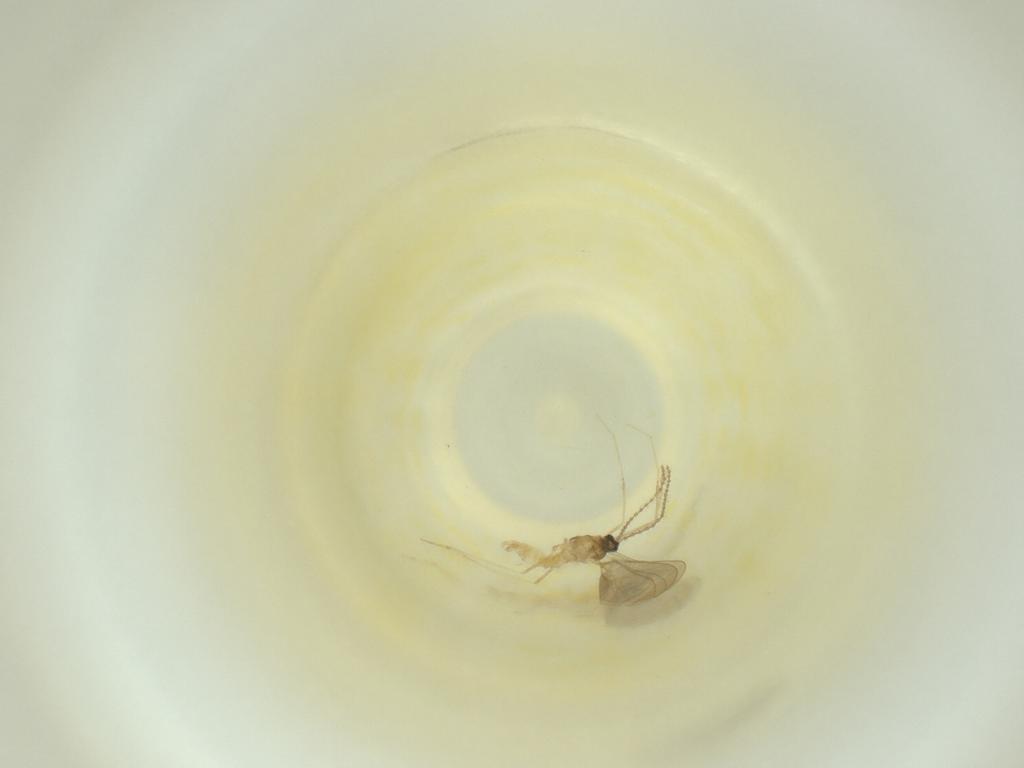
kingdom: Animalia
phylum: Arthropoda
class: Insecta
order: Diptera
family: Cecidomyiidae
